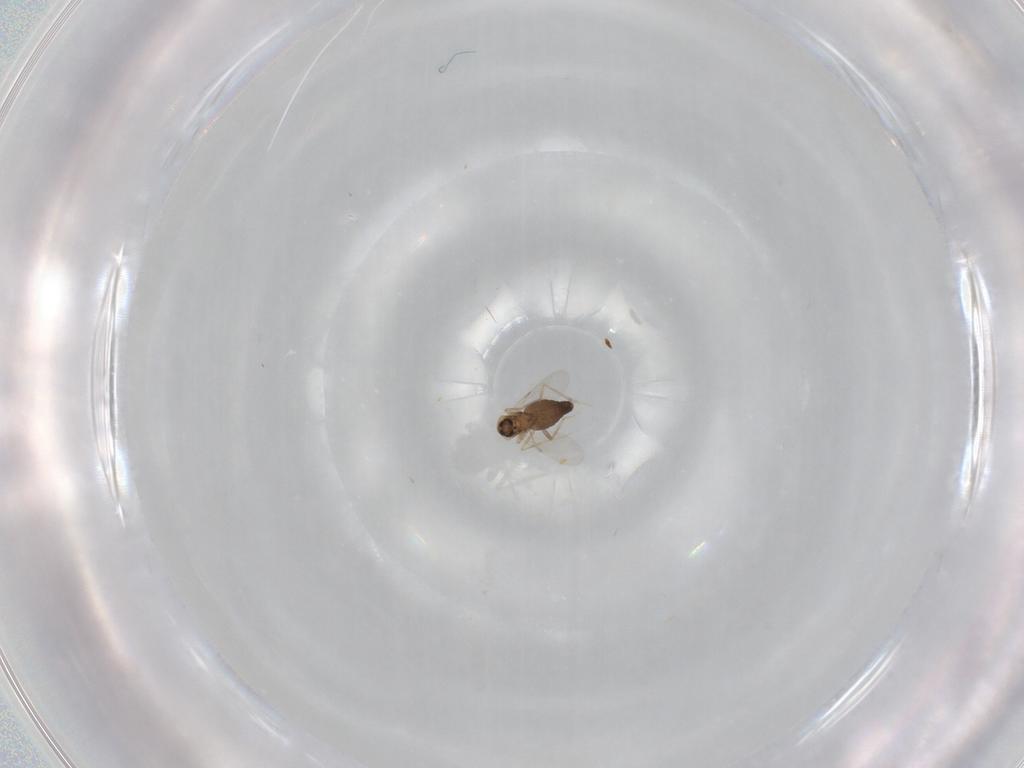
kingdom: Animalia
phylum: Arthropoda
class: Insecta
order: Diptera
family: Ceratopogonidae
